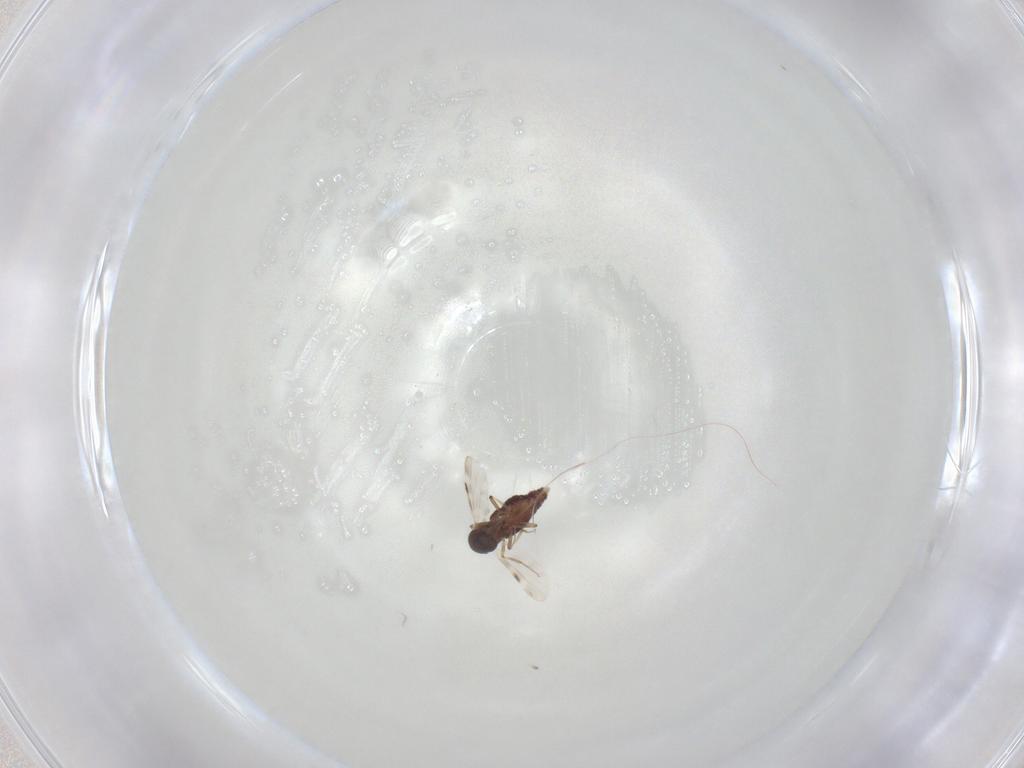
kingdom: Animalia
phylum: Arthropoda
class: Insecta
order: Diptera
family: Cecidomyiidae
